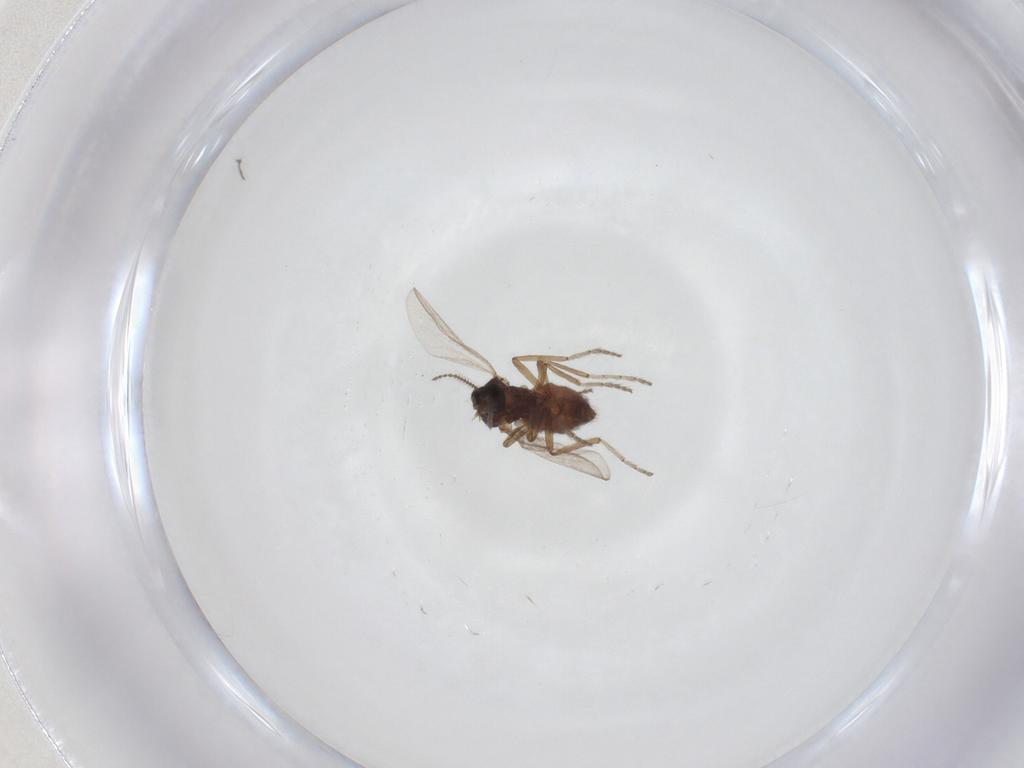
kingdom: Animalia
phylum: Arthropoda
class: Insecta
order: Diptera
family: Ceratopogonidae
